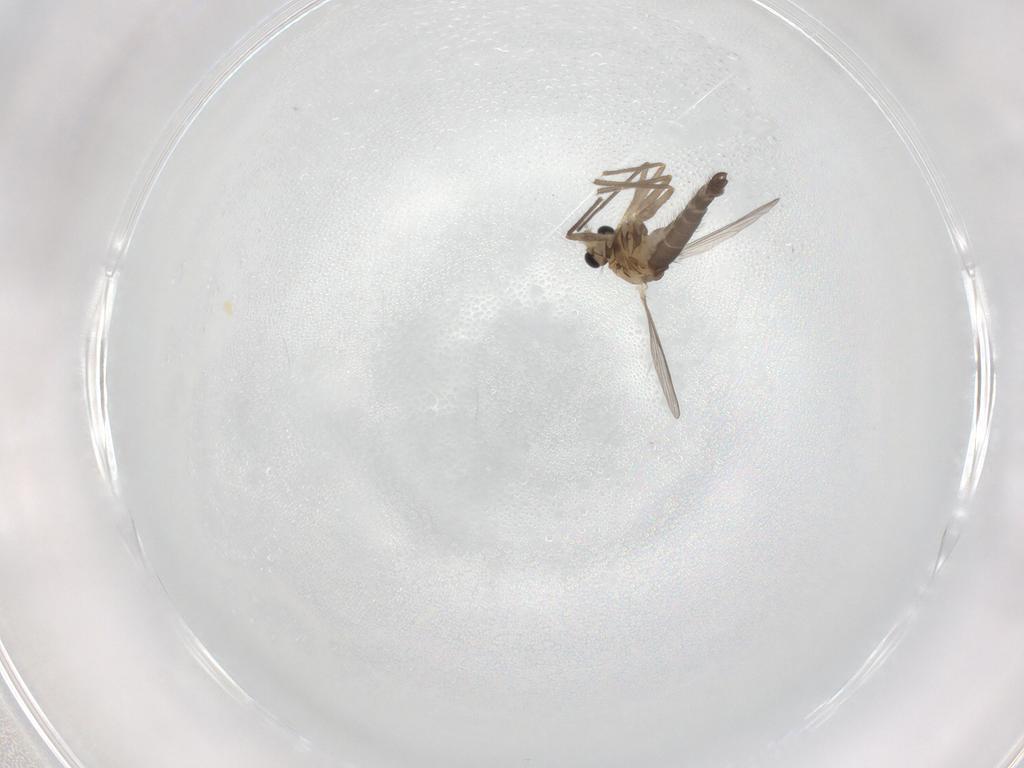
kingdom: Animalia
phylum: Arthropoda
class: Insecta
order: Diptera
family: Chironomidae
